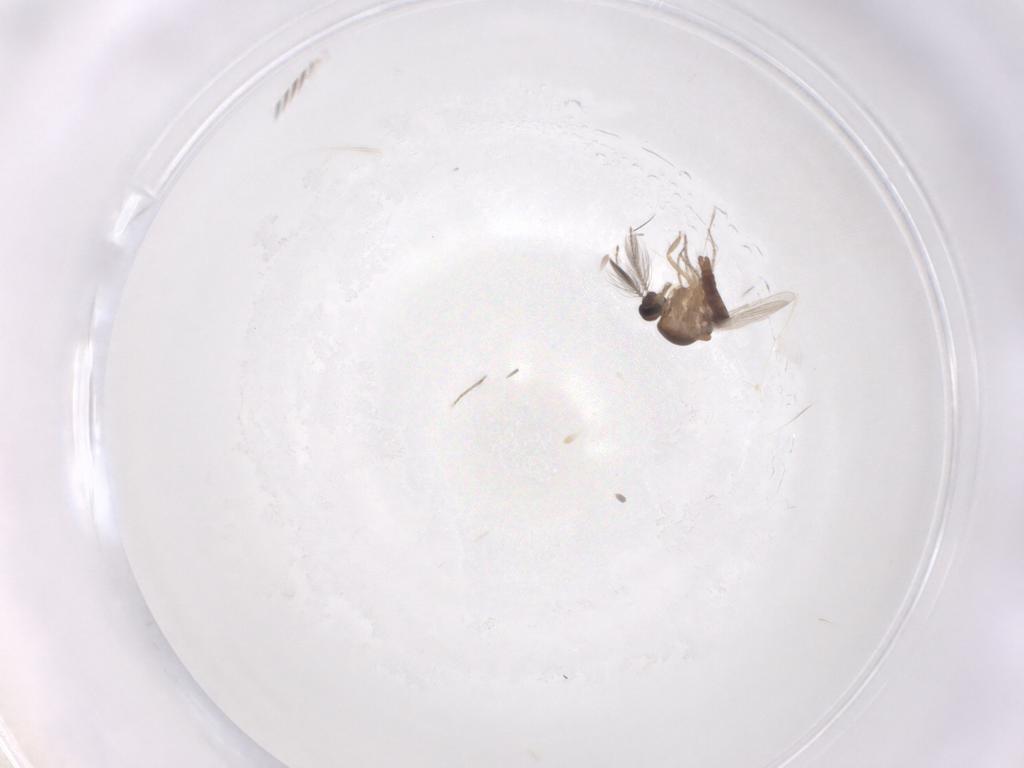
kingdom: Animalia
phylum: Arthropoda
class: Insecta
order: Diptera
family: Ceratopogonidae
